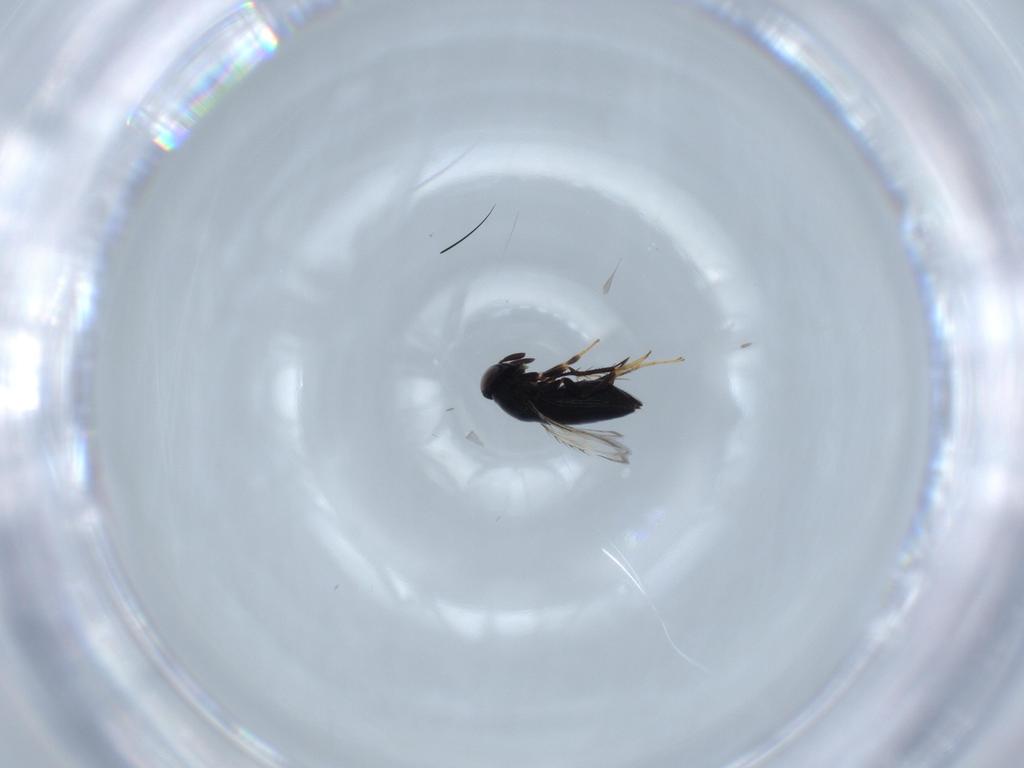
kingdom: Animalia
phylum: Arthropoda
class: Insecta
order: Hymenoptera
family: Signiphoridae
